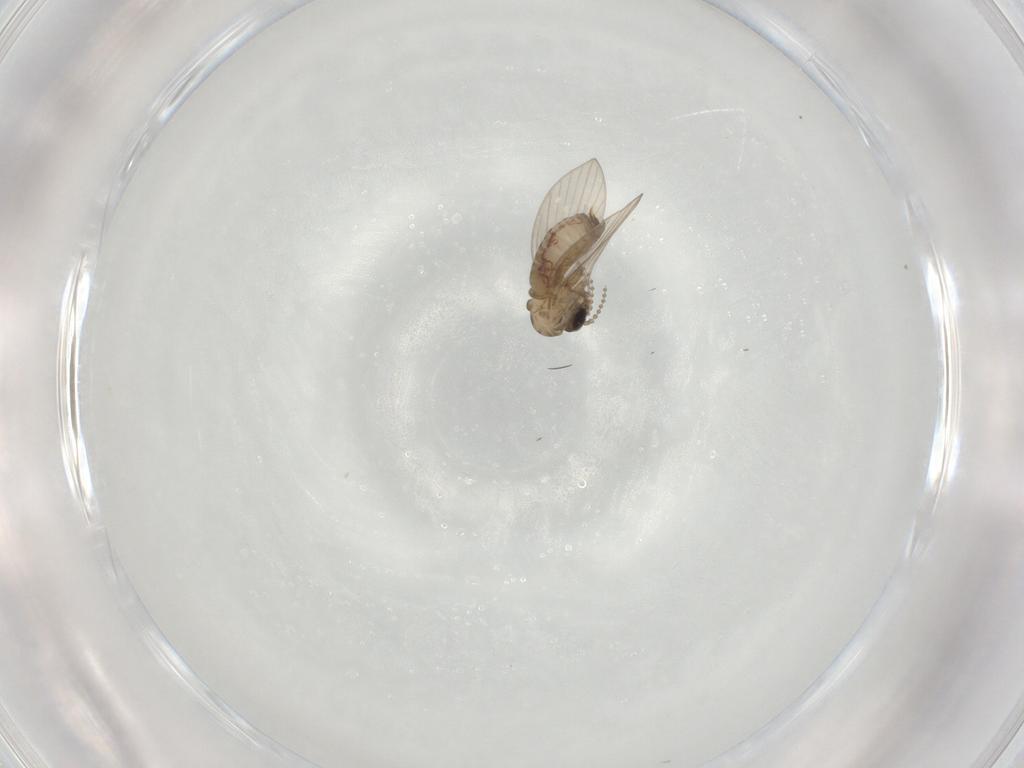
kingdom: Animalia
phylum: Arthropoda
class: Insecta
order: Diptera
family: Psychodidae
